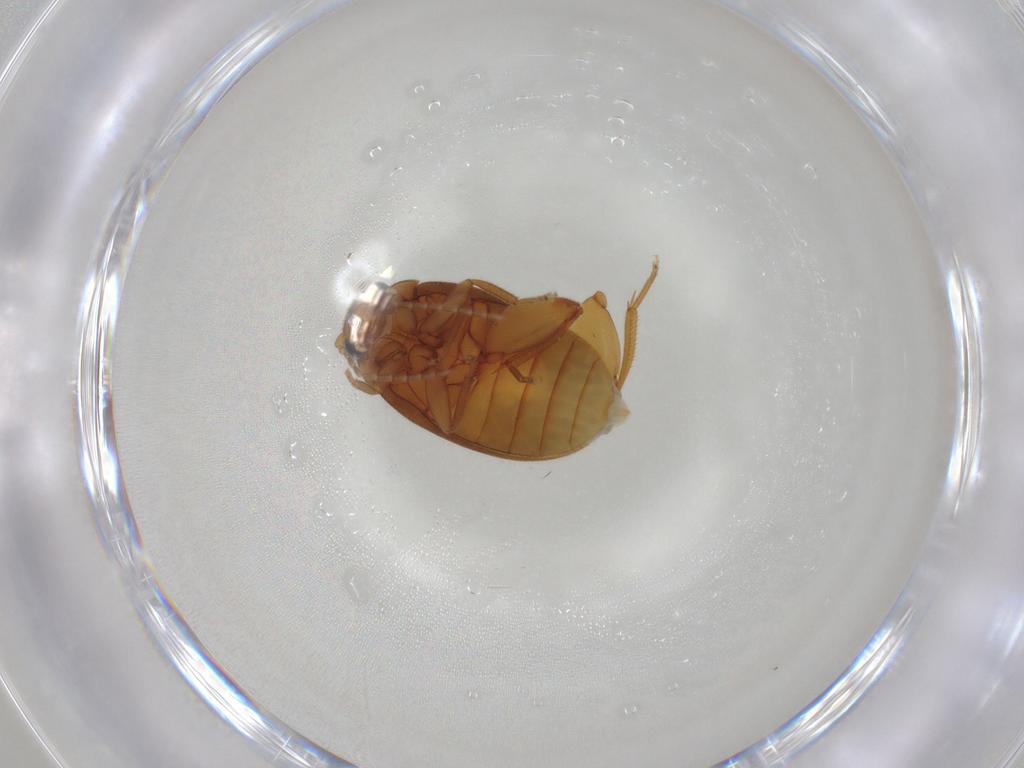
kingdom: Animalia
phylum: Arthropoda
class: Insecta
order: Coleoptera
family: Scirtidae
